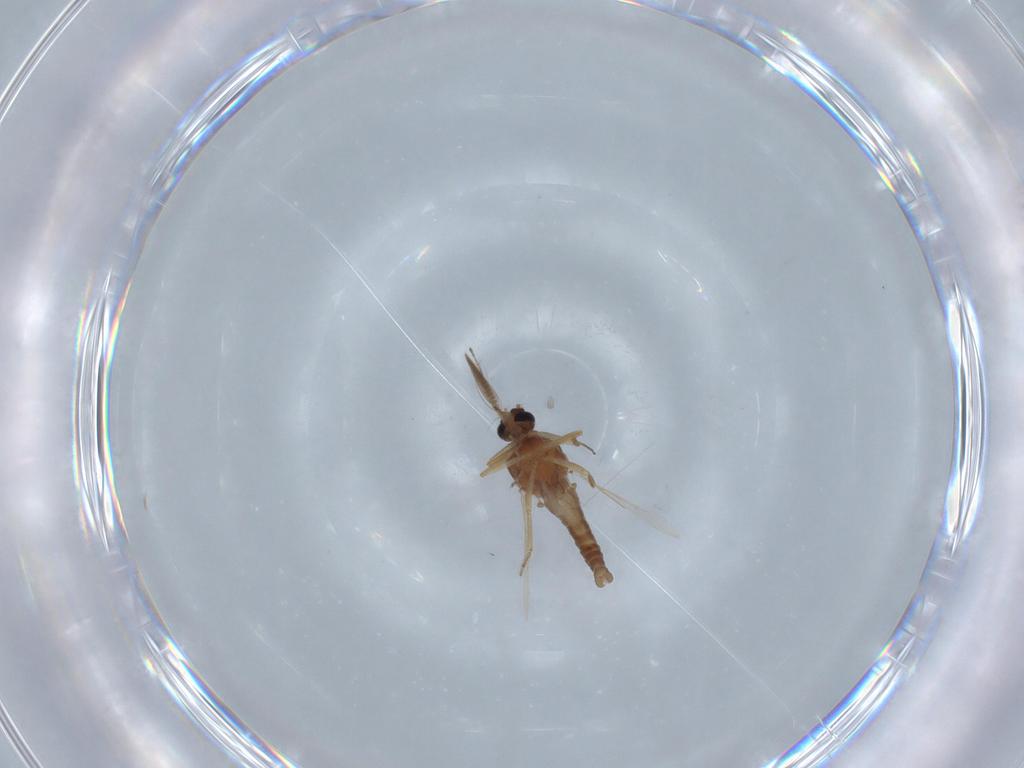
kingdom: Animalia
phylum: Arthropoda
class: Insecta
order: Diptera
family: Ceratopogonidae
